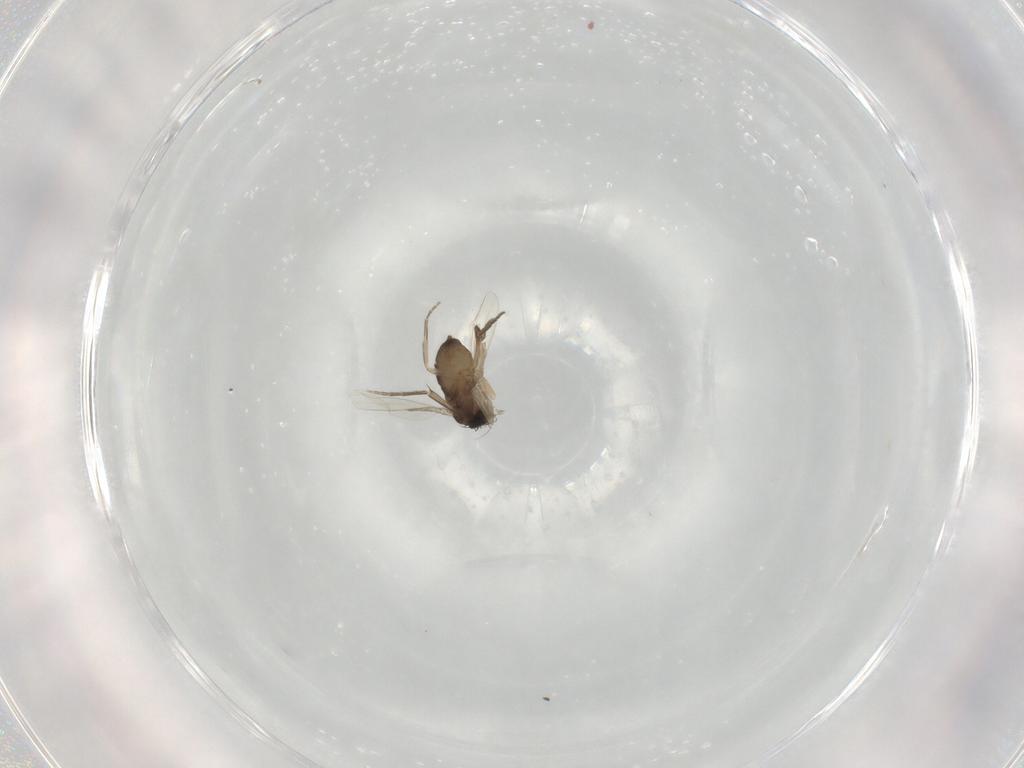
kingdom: Animalia
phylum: Arthropoda
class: Insecta
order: Diptera
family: Phoridae
